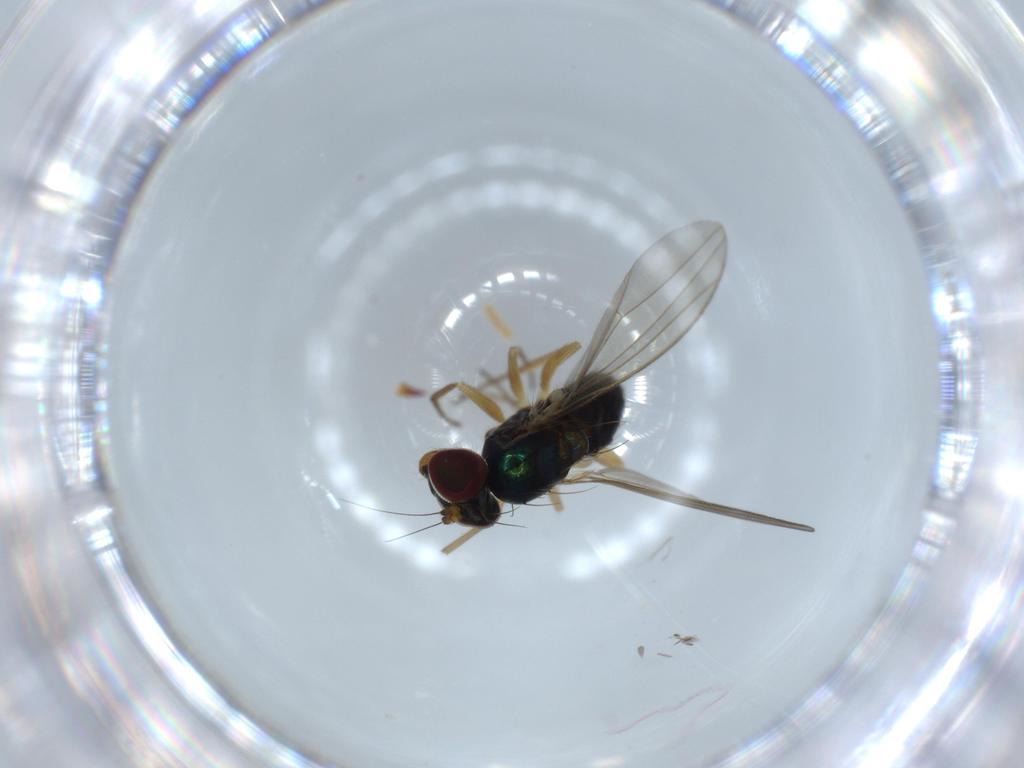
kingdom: Animalia
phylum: Arthropoda
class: Insecta
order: Diptera
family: Dolichopodidae
